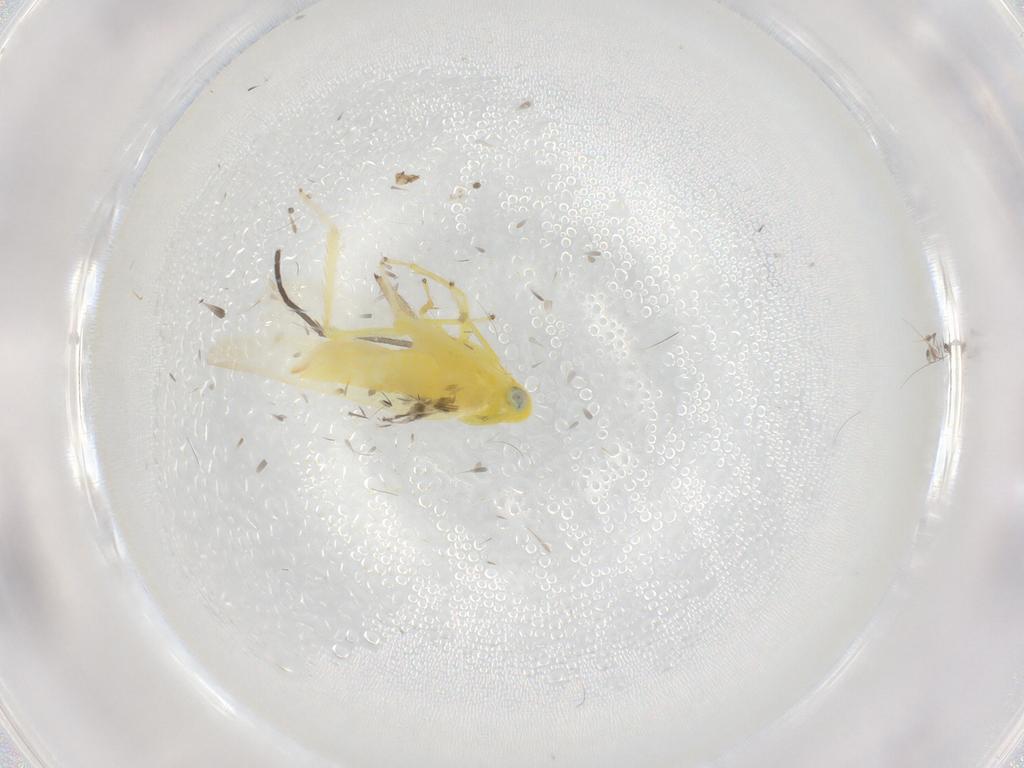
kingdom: Animalia
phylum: Arthropoda
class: Insecta
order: Hemiptera
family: Cicadellidae
